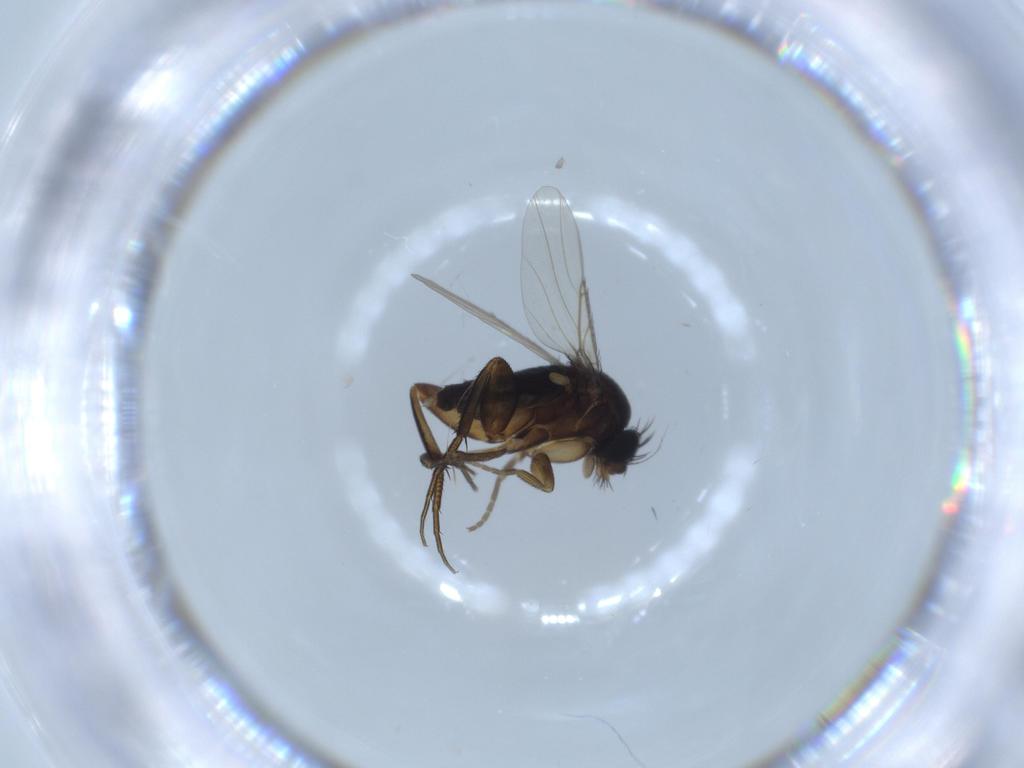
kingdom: Animalia
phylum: Arthropoda
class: Insecta
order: Diptera
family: Phoridae
